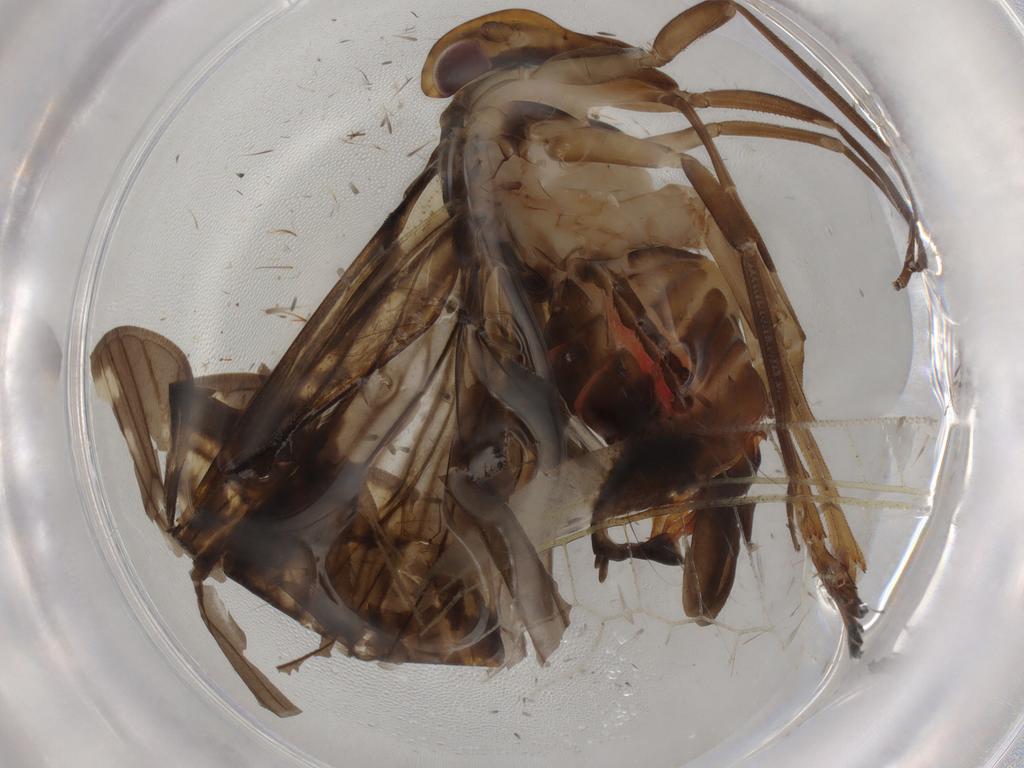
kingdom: Animalia
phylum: Arthropoda
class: Insecta
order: Hemiptera
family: Cixiidae
